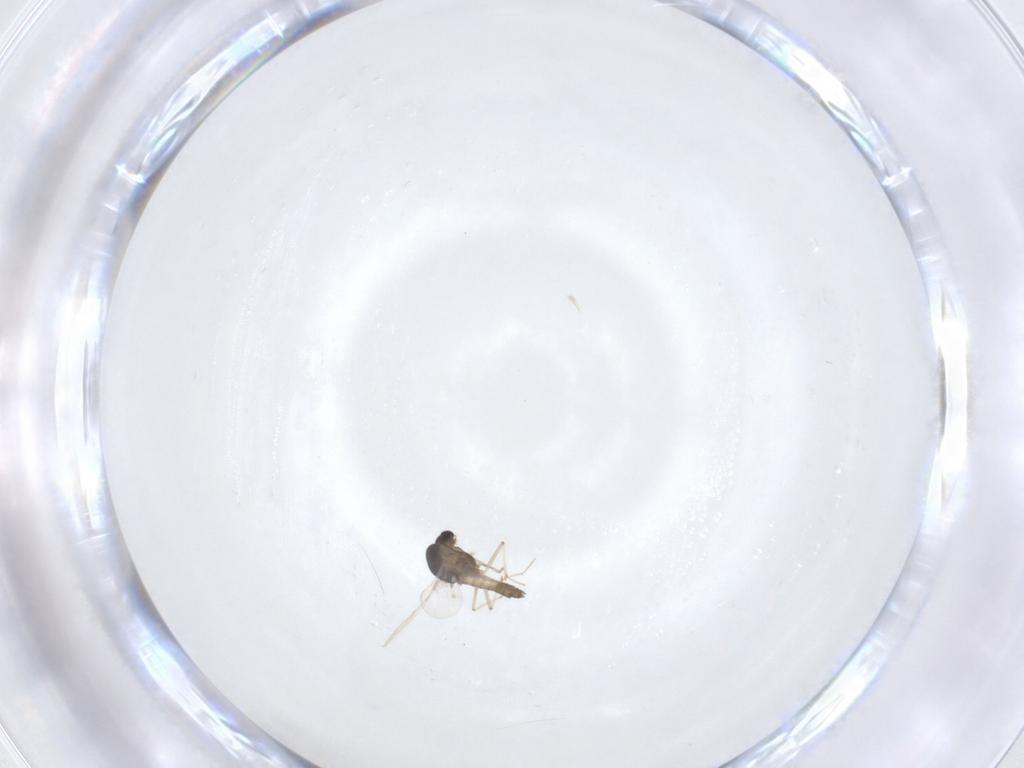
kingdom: Animalia
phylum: Arthropoda
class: Insecta
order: Diptera
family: Chironomidae
